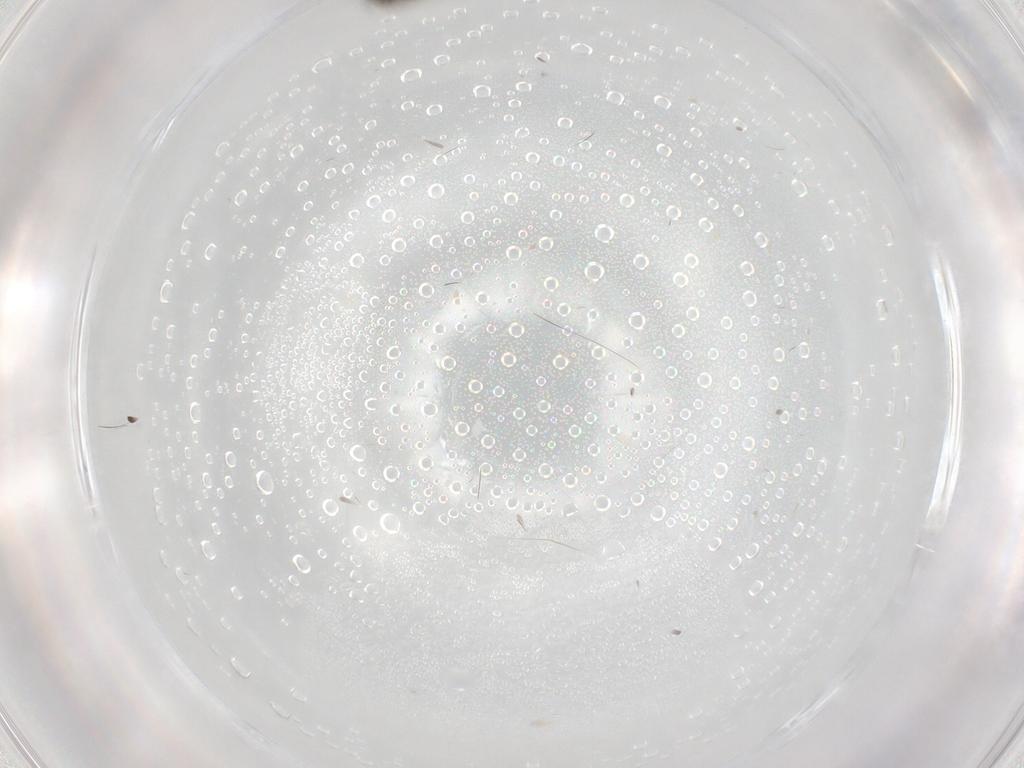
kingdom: Animalia
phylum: Arthropoda
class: Insecta
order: Diptera
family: Chironomidae
